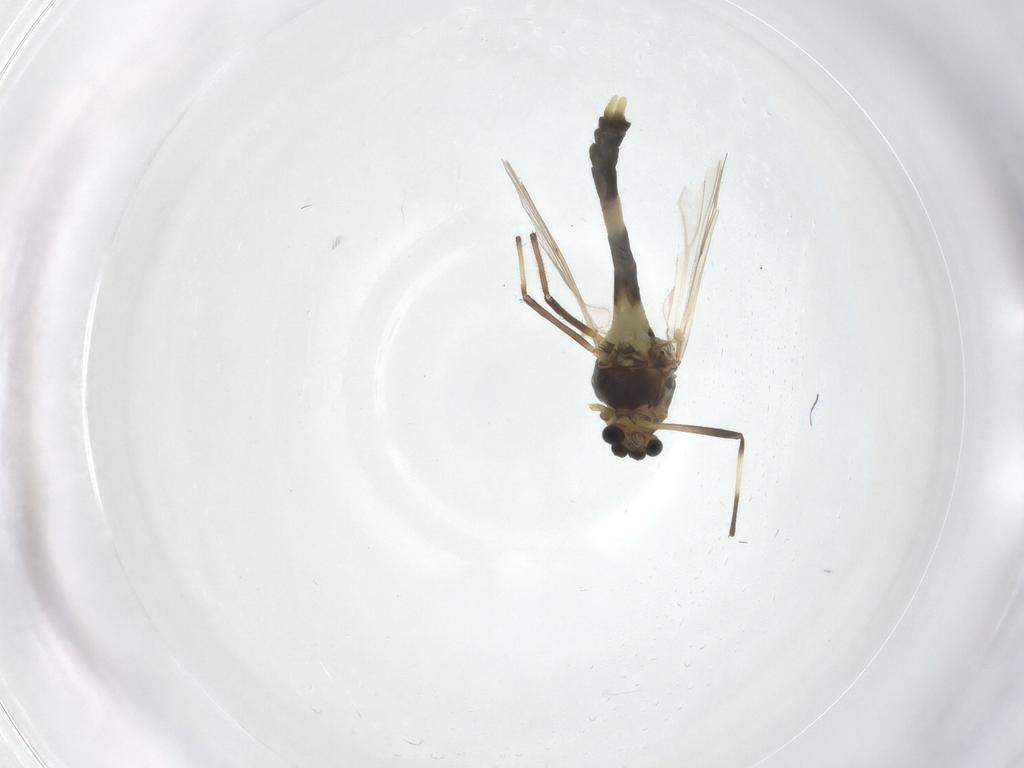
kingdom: Animalia
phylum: Arthropoda
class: Insecta
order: Diptera
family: Chironomidae
